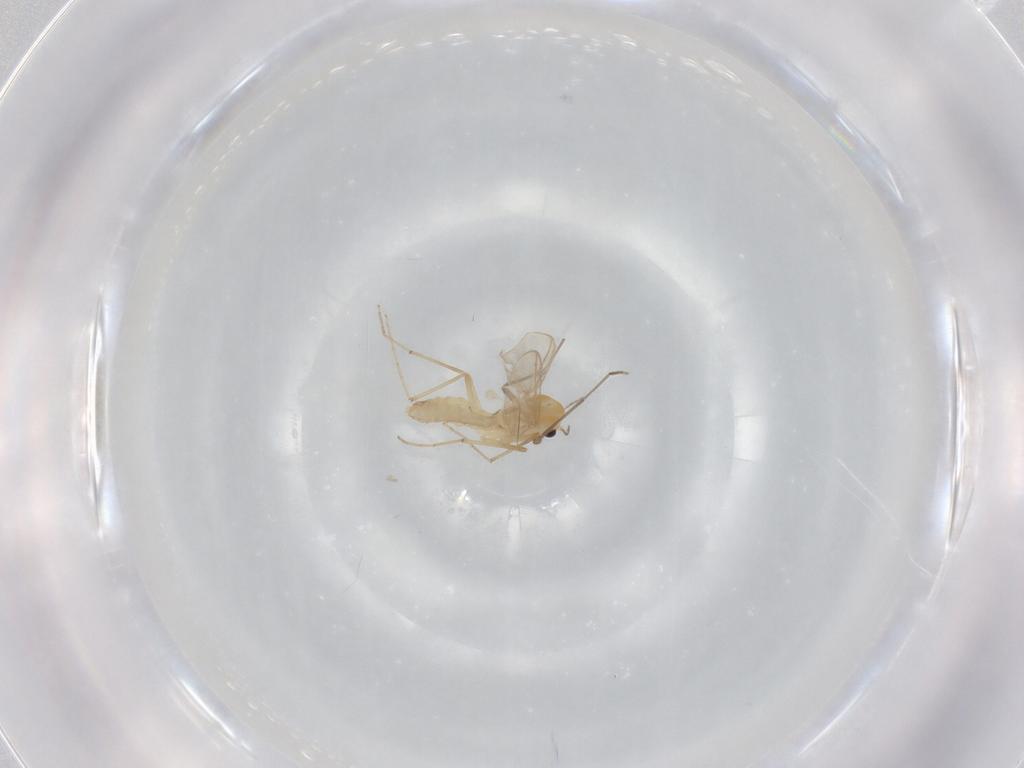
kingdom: Animalia
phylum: Arthropoda
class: Insecta
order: Diptera
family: Chironomidae
